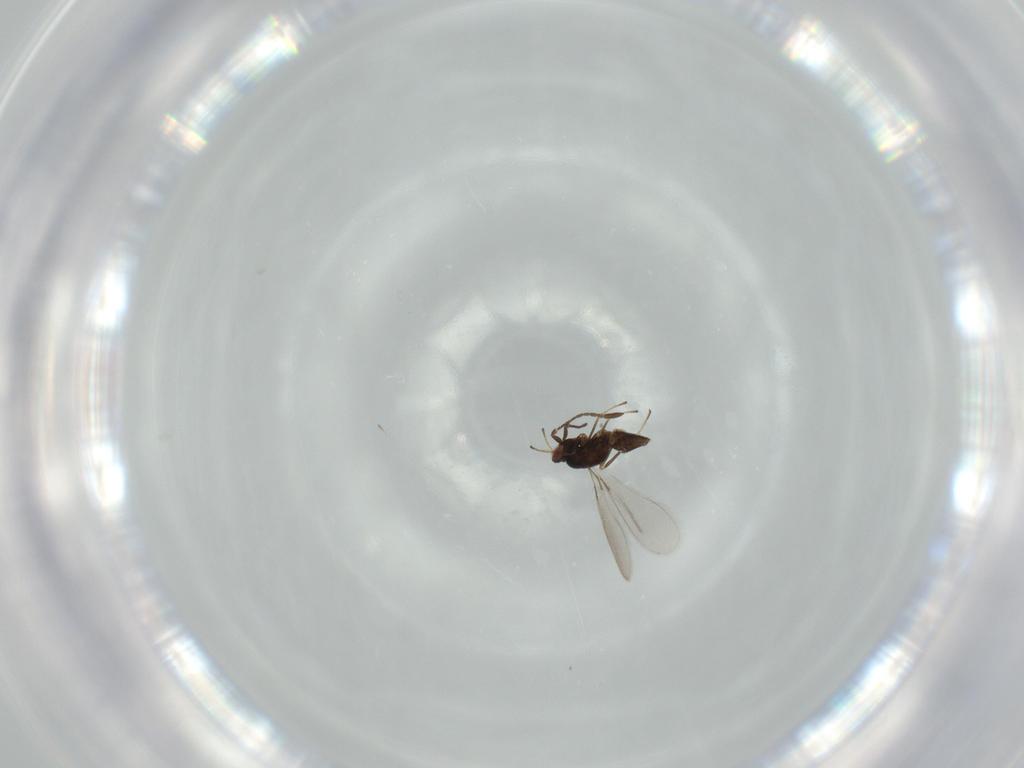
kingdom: Animalia
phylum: Arthropoda
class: Insecta
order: Hymenoptera
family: Ichneumonidae
